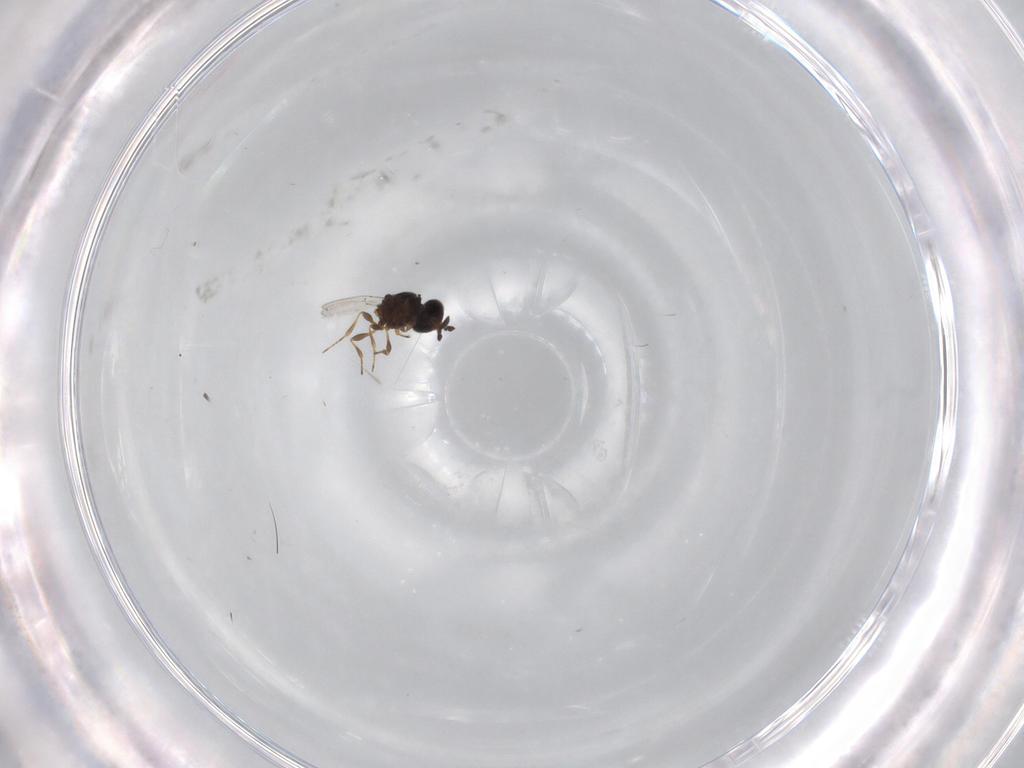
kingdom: Animalia
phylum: Arthropoda
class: Insecta
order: Hymenoptera
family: Platygastridae
